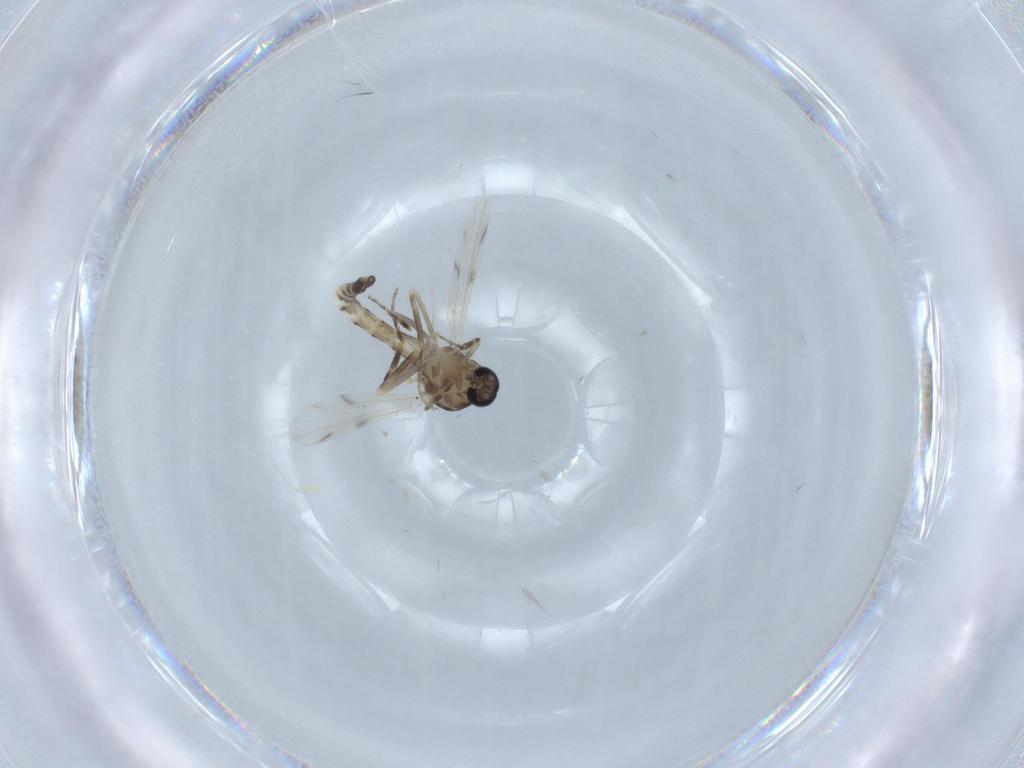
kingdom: Animalia
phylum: Arthropoda
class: Insecta
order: Diptera
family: Ceratopogonidae
